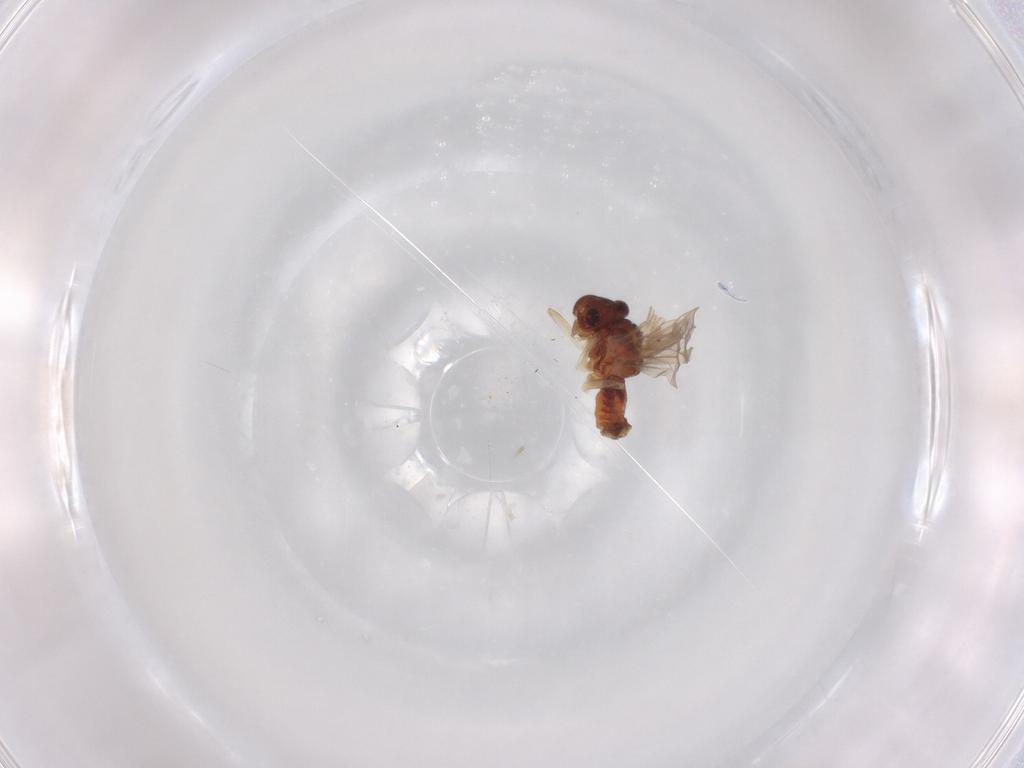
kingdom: Animalia
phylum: Arthropoda
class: Insecta
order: Psocodea
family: Caeciliusidae
